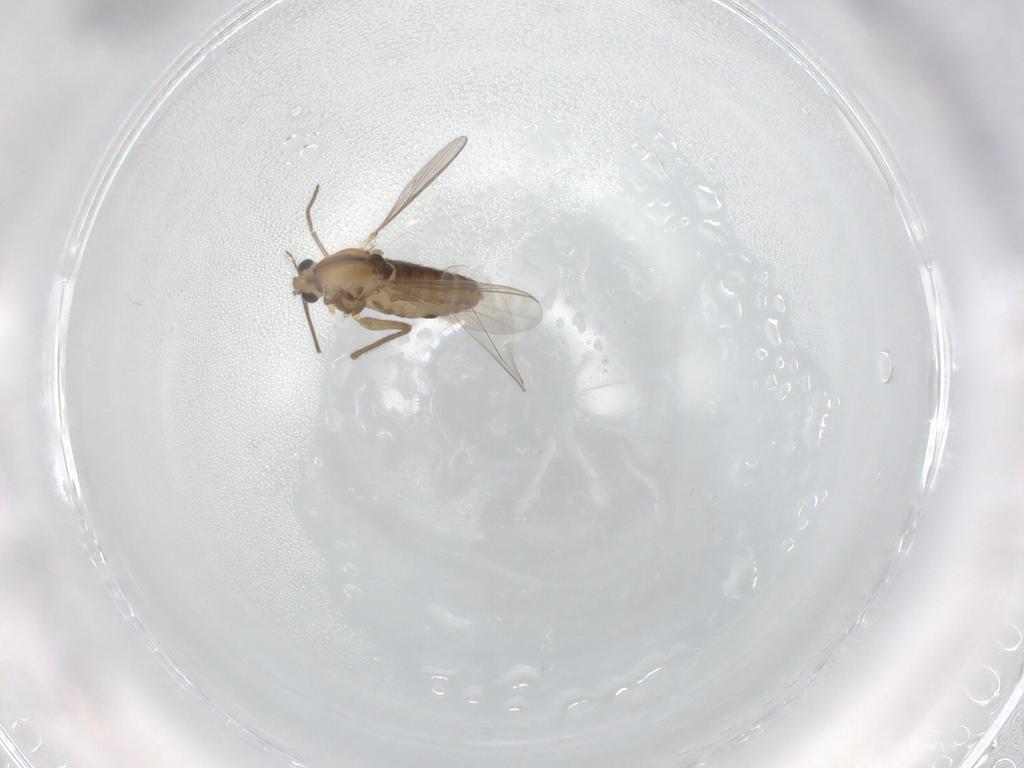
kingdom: Animalia
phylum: Arthropoda
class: Insecta
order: Diptera
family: Chironomidae
